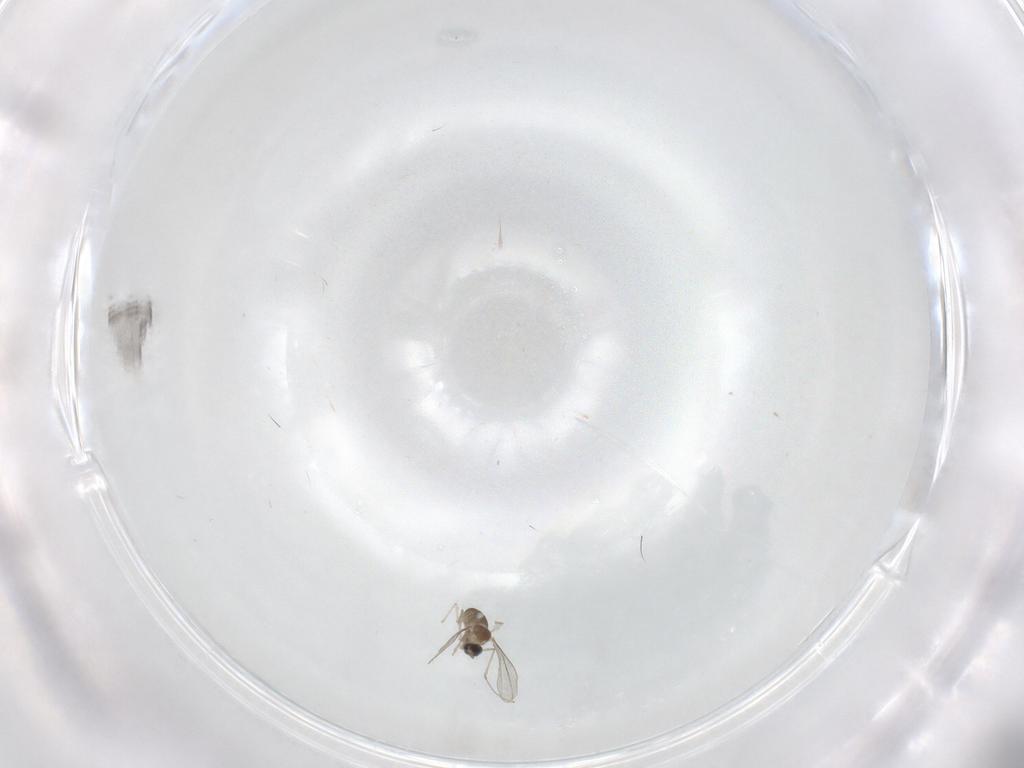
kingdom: Animalia
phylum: Arthropoda
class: Insecta
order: Diptera
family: Cecidomyiidae
